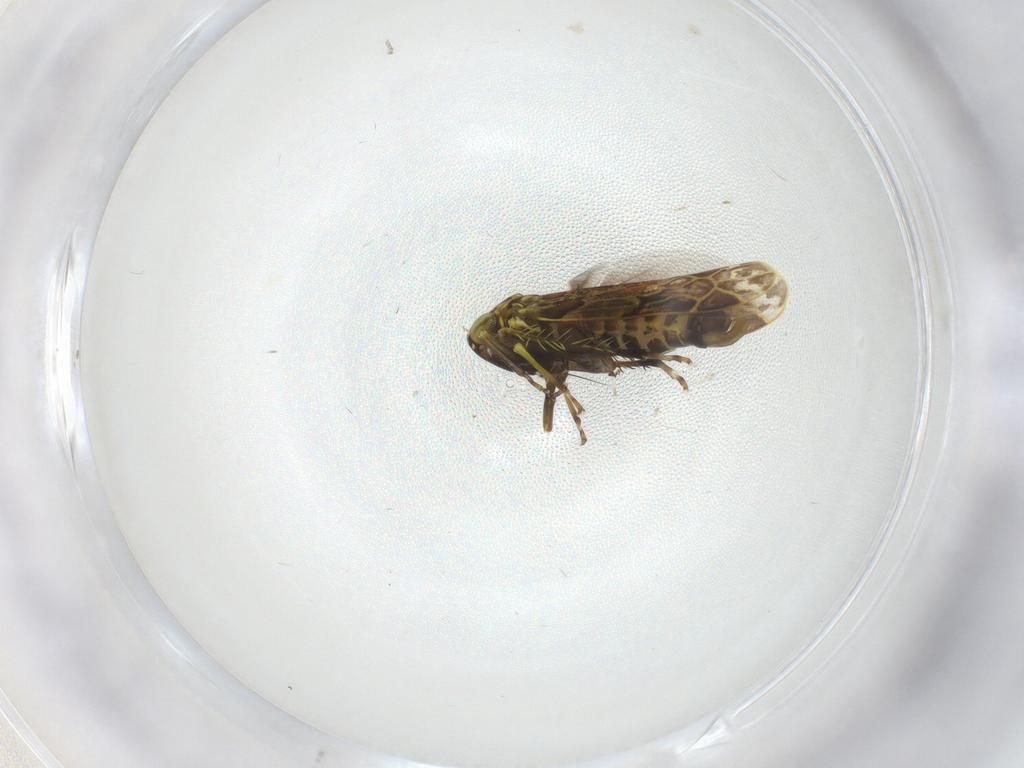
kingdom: Animalia
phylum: Arthropoda
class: Insecta
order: Hemiptera
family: Cicadellidae
